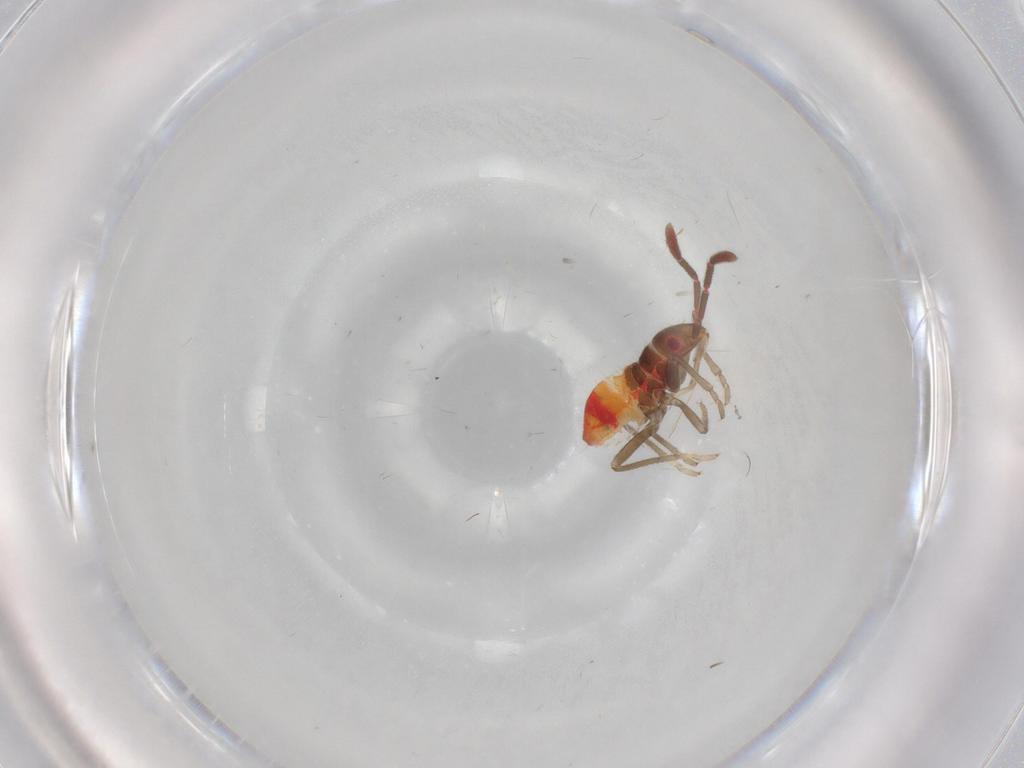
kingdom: Animalia
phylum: Arthropoda
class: Insecta
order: Hemiptera
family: Rhyparochromidae
